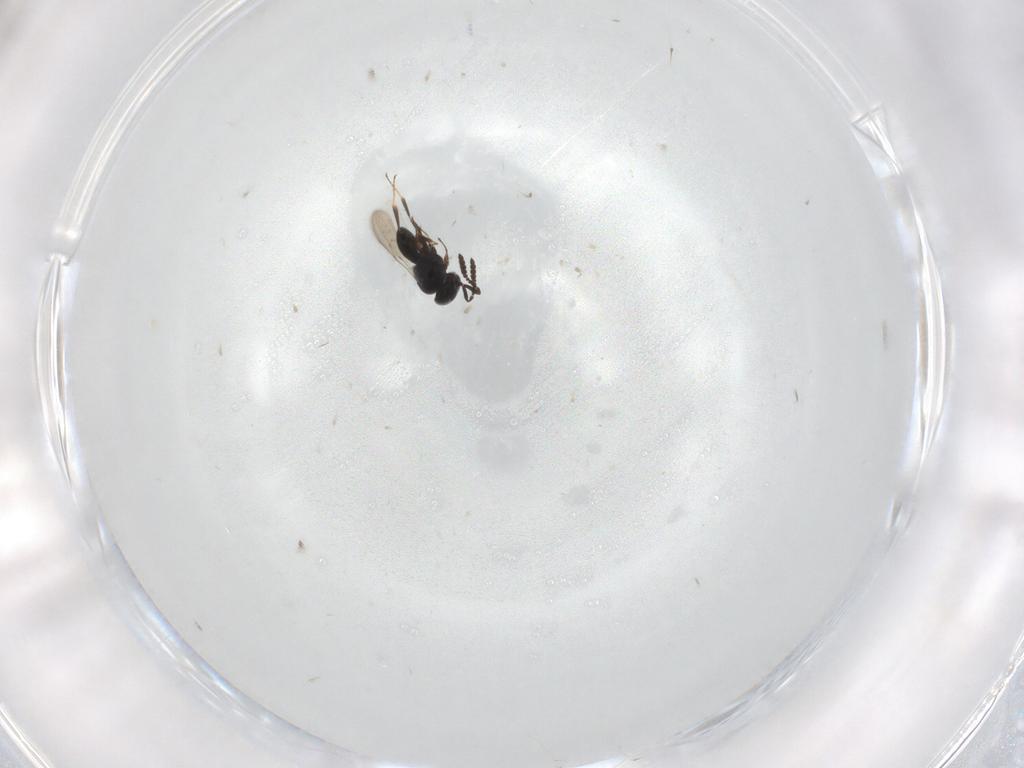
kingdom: Animalia
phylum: Arthropoda
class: Insecta
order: Hymenoptera
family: Scelionidae
